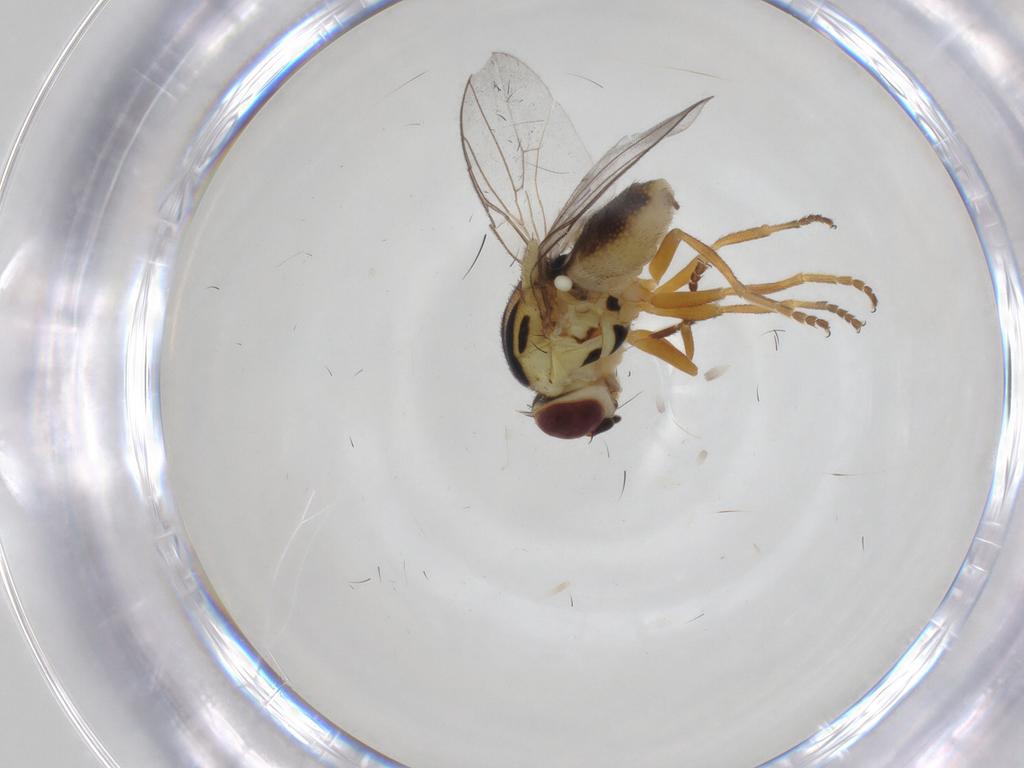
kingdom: Animalia
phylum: Arthropoda
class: Insecta
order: Diptera
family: Chloropidae
